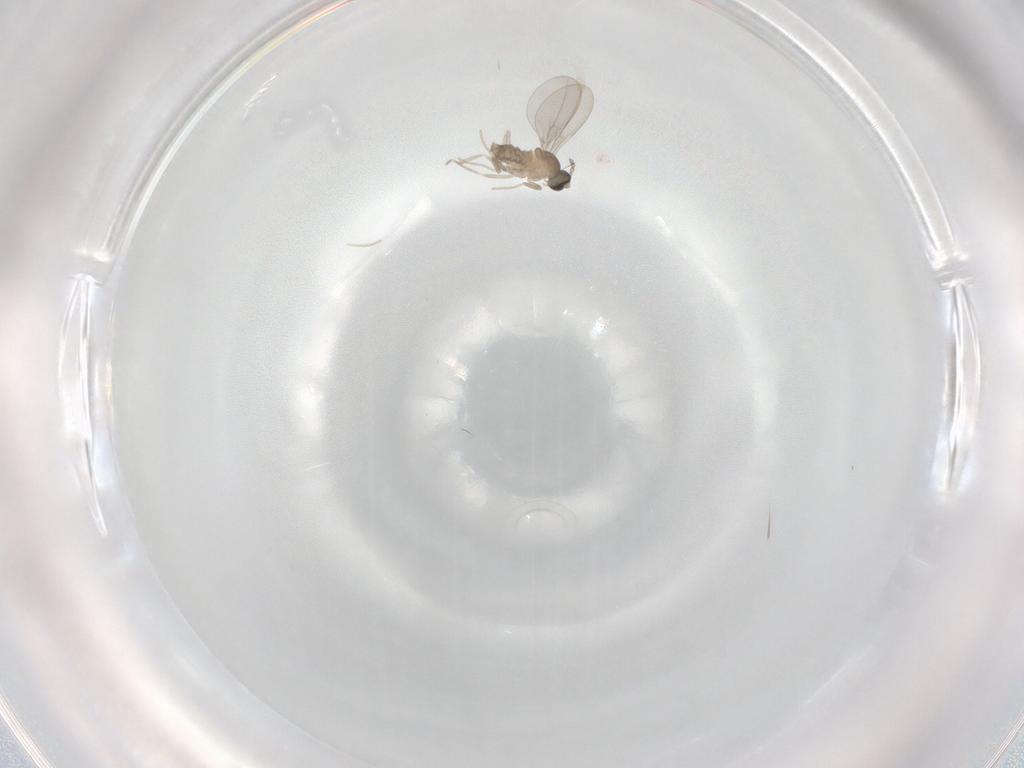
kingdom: Animalia
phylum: Arthropoda
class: Insecta
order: Diptera
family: Cecidomyiidae
